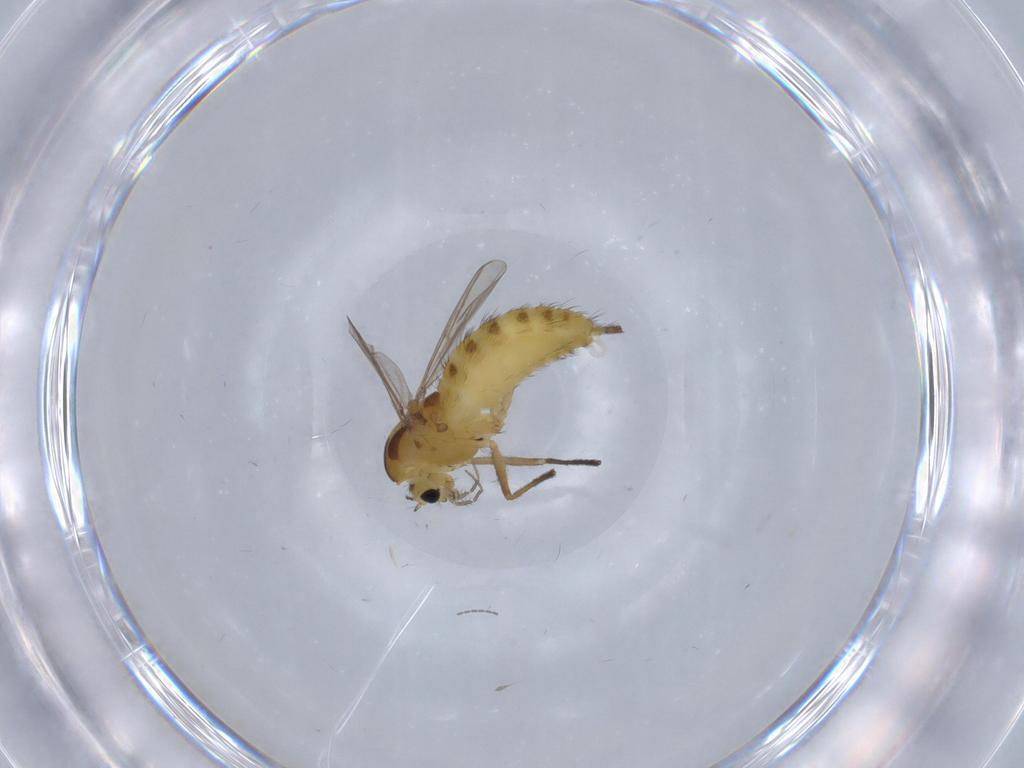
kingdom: Animalia
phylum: Arthropoda
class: Insecta
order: Diptera
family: Chironomidae
